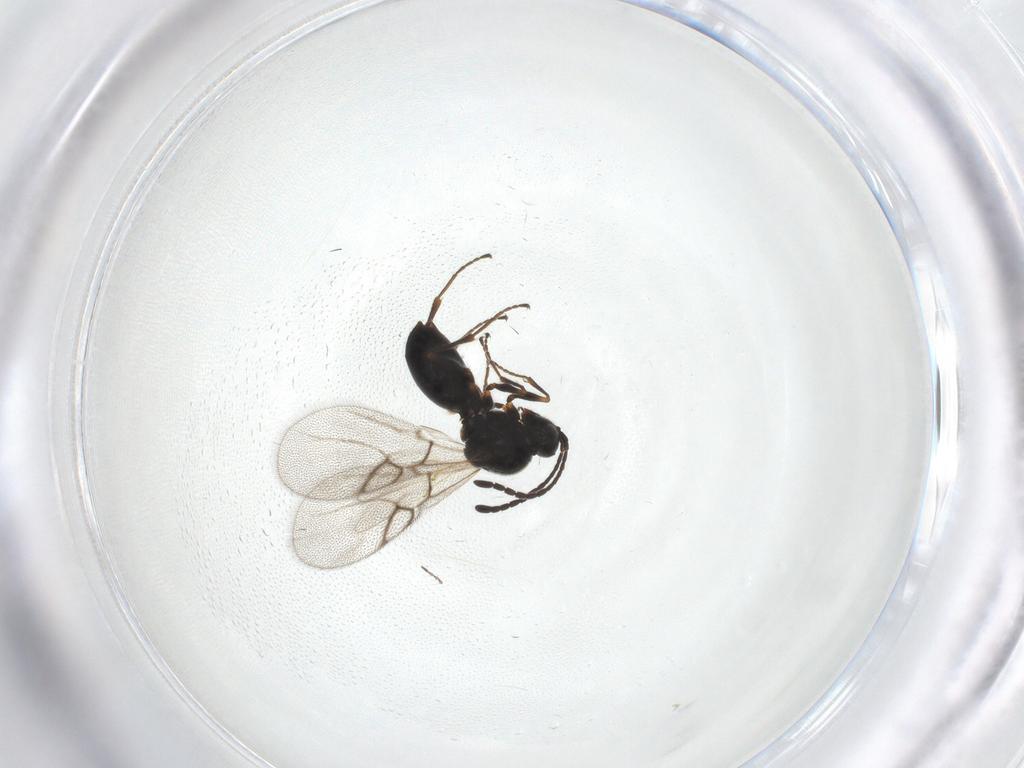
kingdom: Animalia
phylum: Arthropoda
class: Insecta
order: Hymenoptera
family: Figitidae
